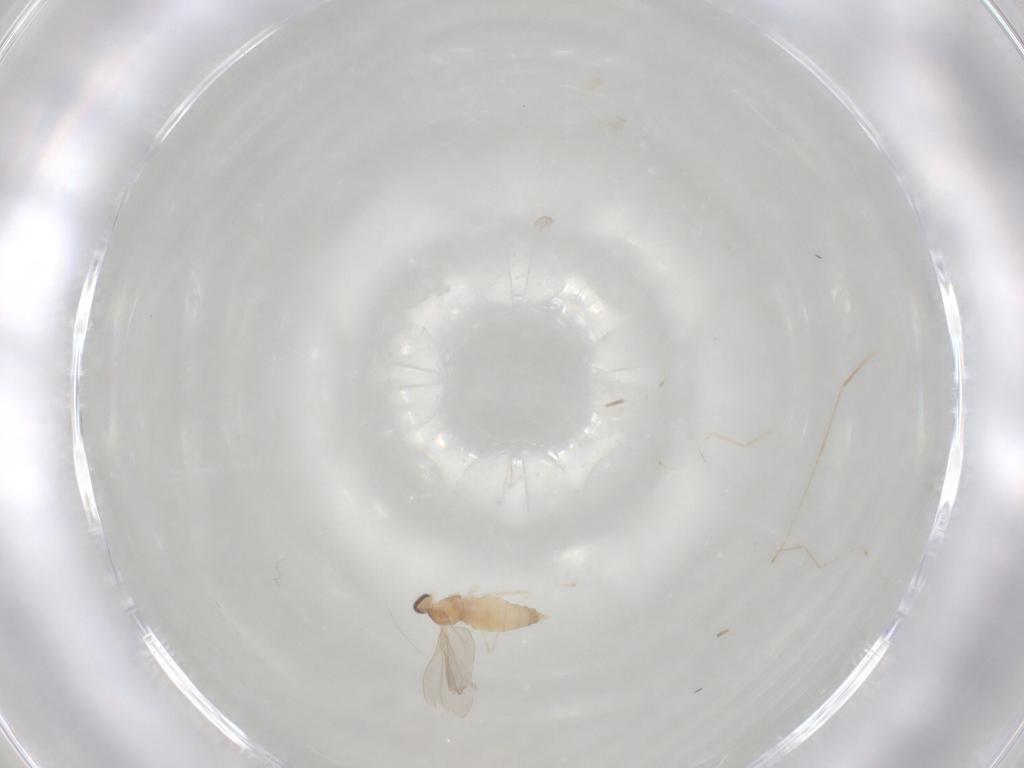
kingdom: Animalia
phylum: Arthropoda
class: Insecta
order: Diptera
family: Cecidomyiidae
